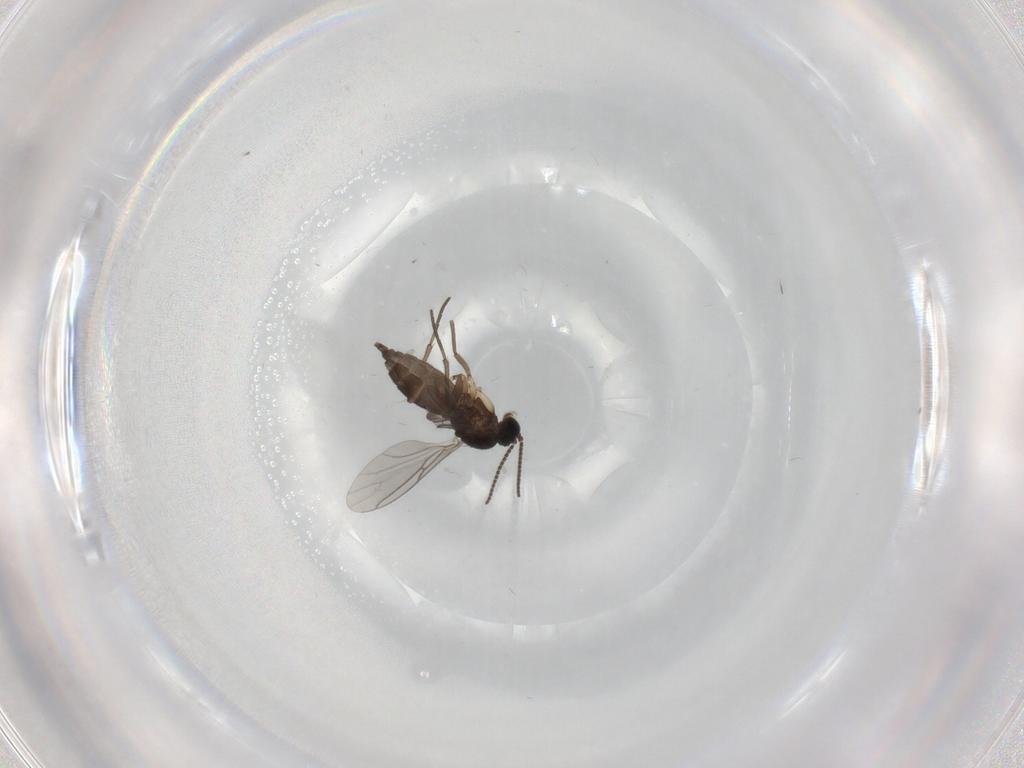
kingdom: Animalia
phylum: Arthropoda
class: Insecta
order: Diptera
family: Sciaridae
